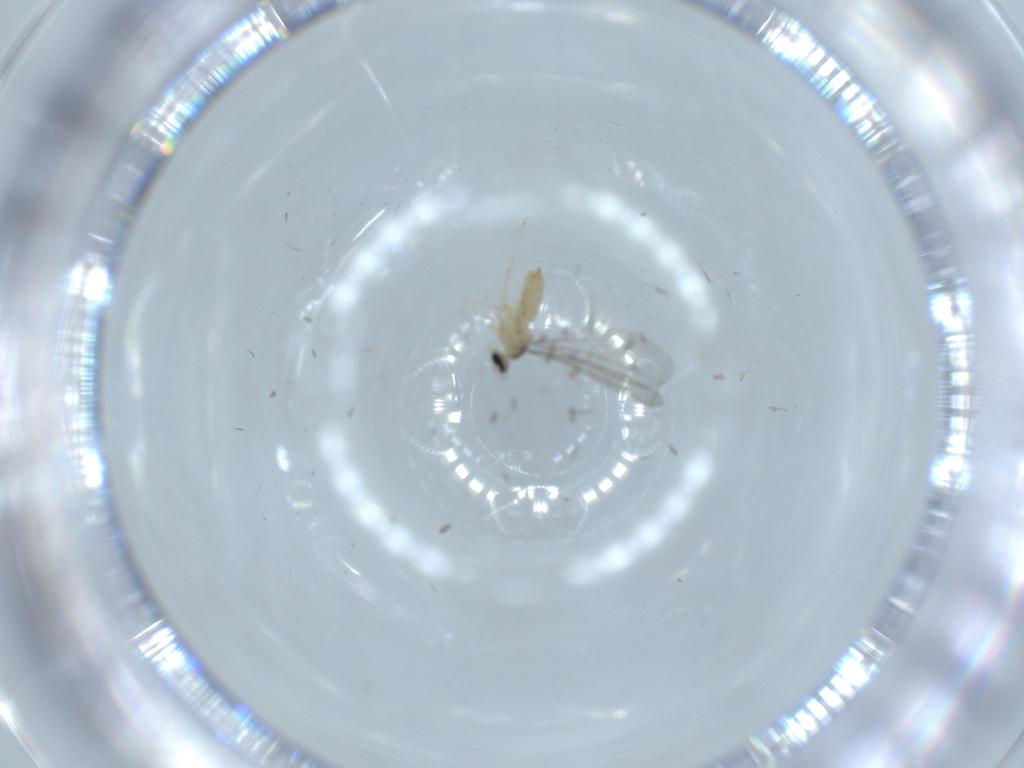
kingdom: Animalia
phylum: Arthropoda
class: Insecta
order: Diptera
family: Cecidomyiidae
